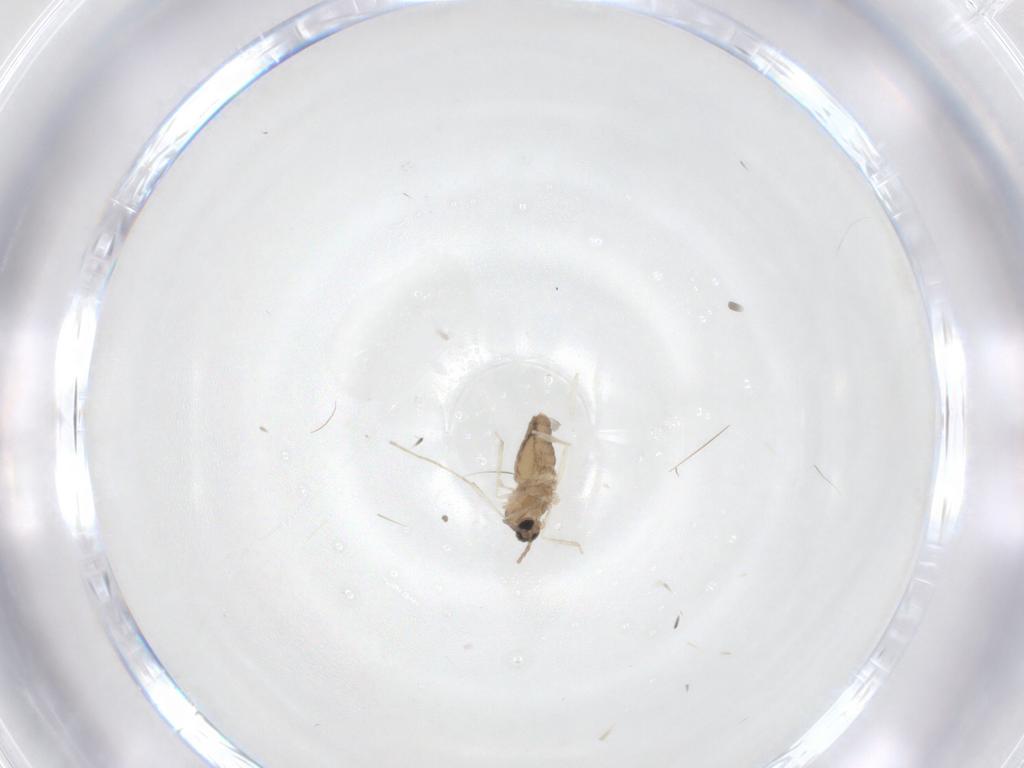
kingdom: Animalia
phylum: Arthropoda
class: Insecta
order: Diptera
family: Cecidomyiidae
